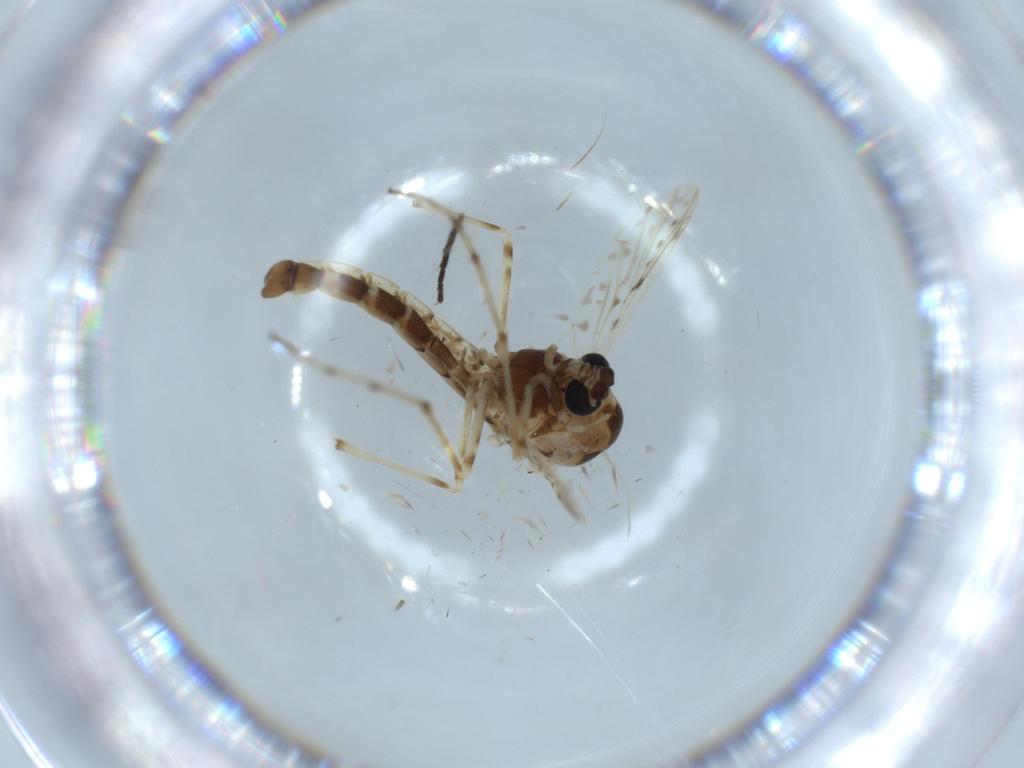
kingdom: Animalia
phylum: Arthropoda
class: Insecta
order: Diptera
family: Chironomidae
